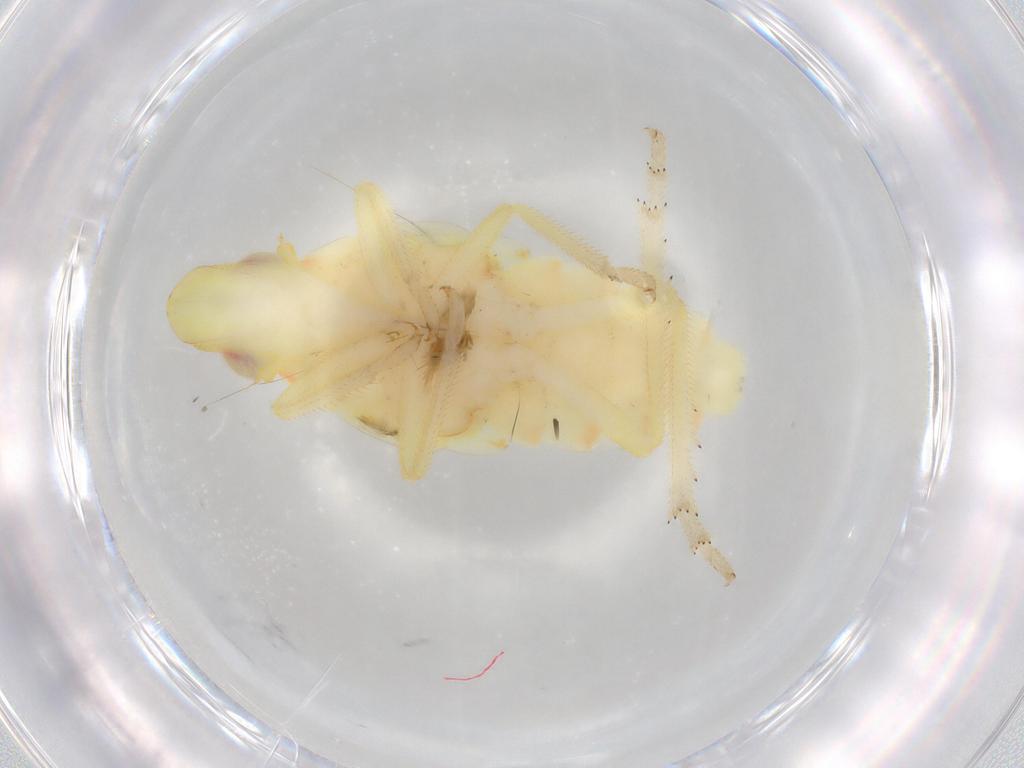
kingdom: Animalia
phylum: Arthropoda
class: Insecta
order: Hemiptera
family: Tropiduchidae
